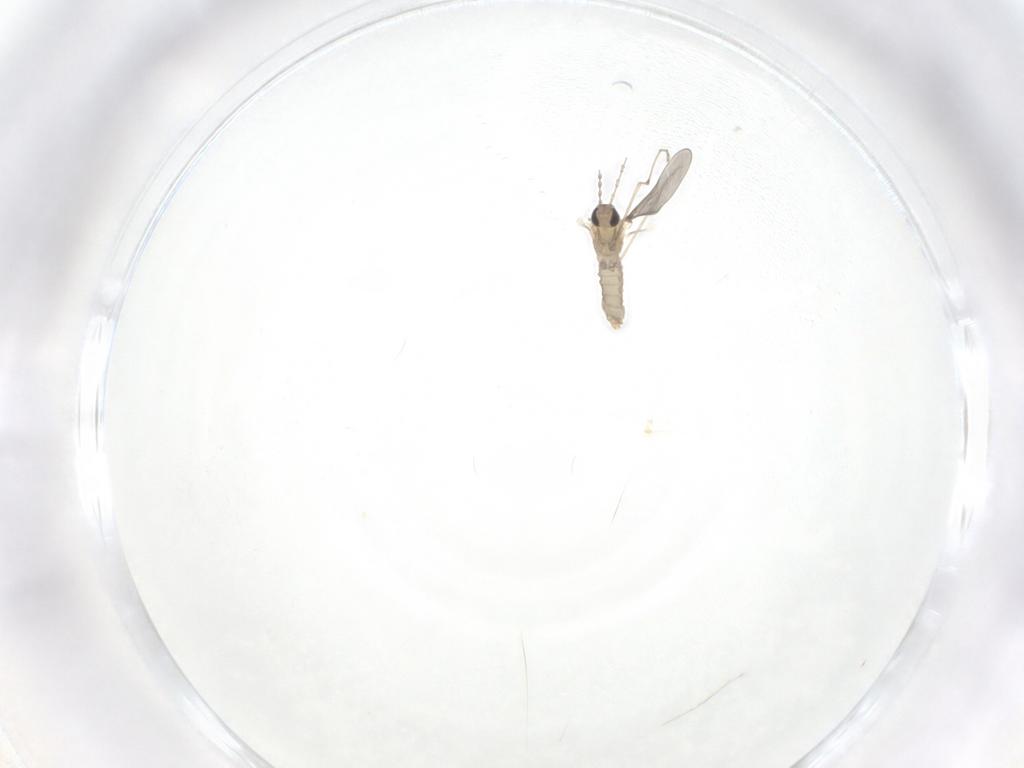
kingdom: Animalia
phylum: Arthropoda
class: Insecta
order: Diptera
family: Cecidomyiidae
